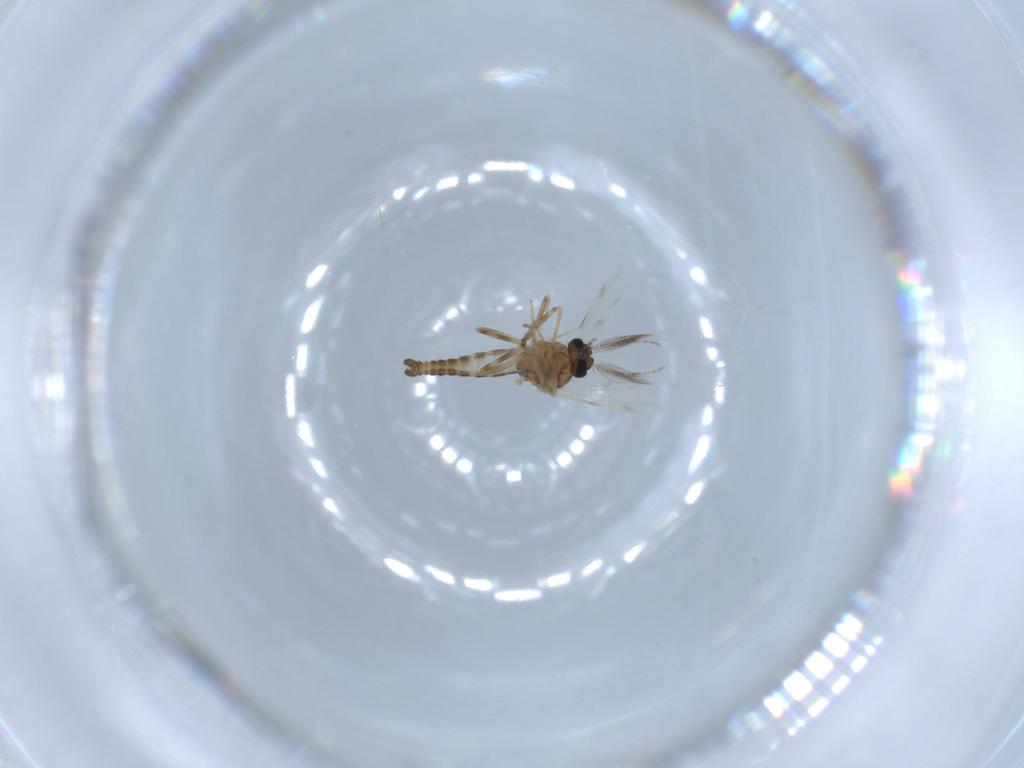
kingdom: Animalia
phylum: Arthropoda
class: Insecta
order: Diptera
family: Ceratopogonidae
